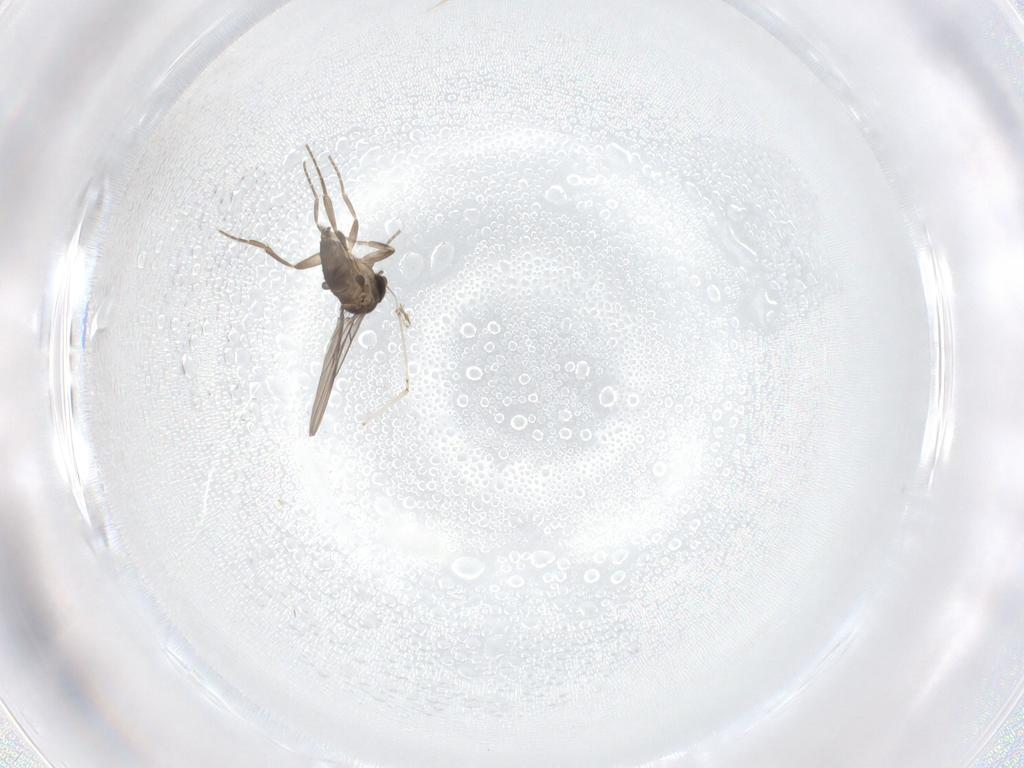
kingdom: Animalia
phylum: Arthropoda
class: Insecta
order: Diptera
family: Phoridae
